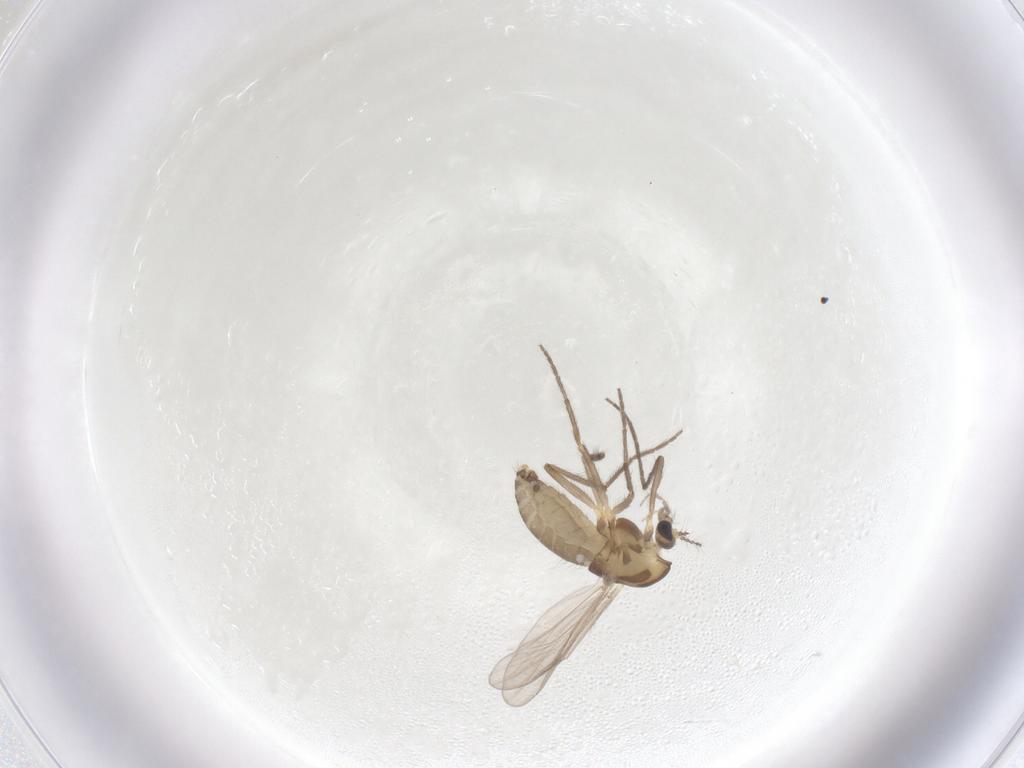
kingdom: Animalia
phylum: Arthropoda
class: Insecta
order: Diptera
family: Chironomidae
